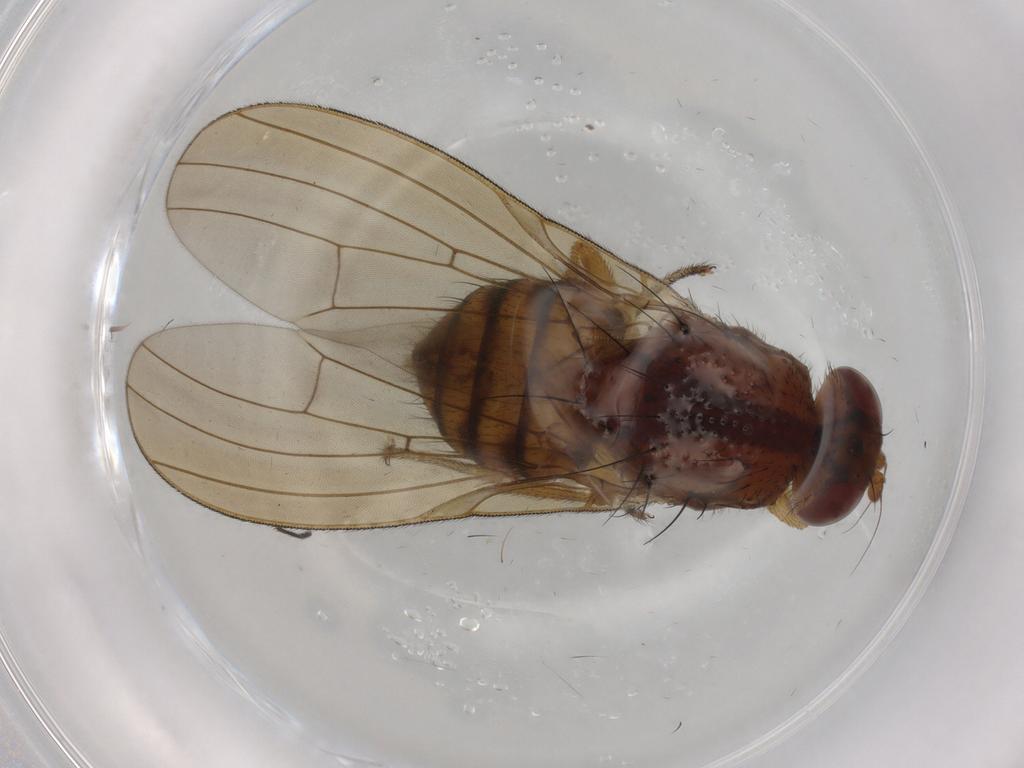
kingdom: Animalia
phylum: Arthropoda
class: Insecta
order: Diptera
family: Lauxaniidae
